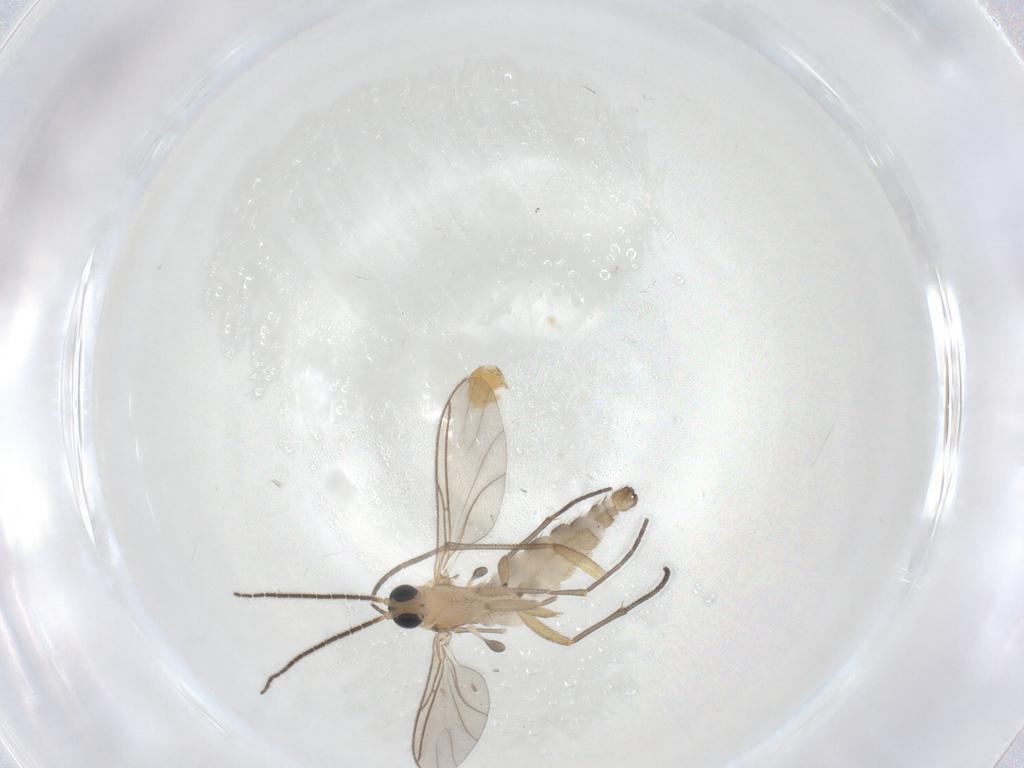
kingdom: Animalia
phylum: Arthropoda
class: Insecta
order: Diptera
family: Sciaridae
